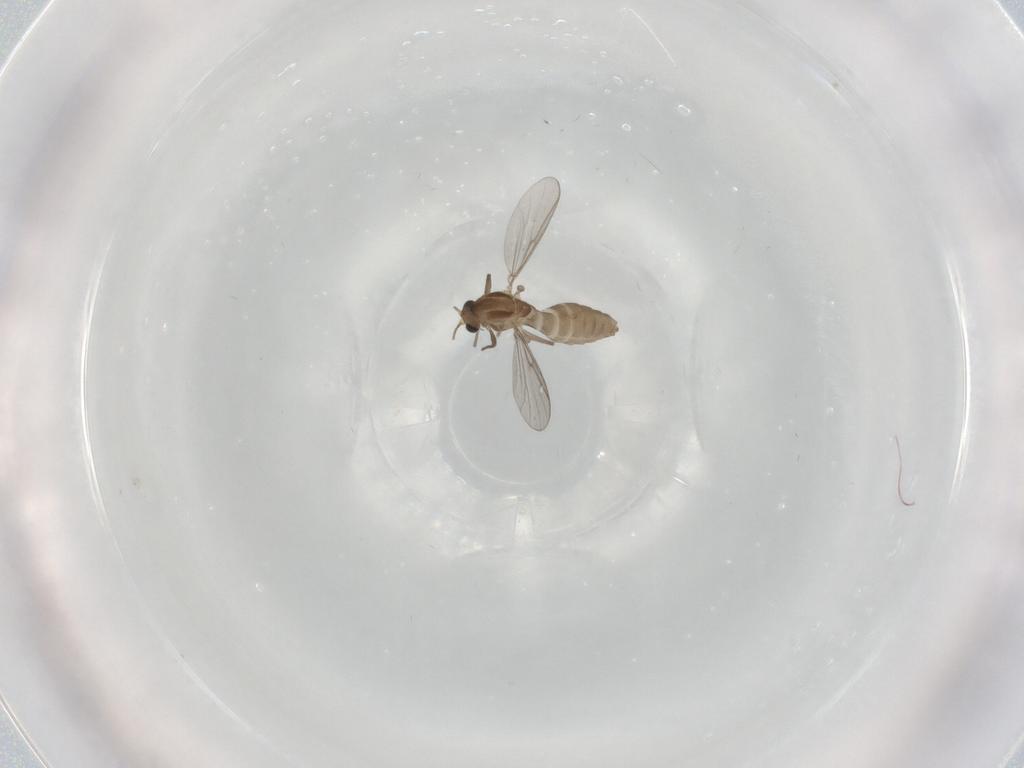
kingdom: Animalia
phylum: Arthropoda
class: Insecta
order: Diptera
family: Chironomidae
